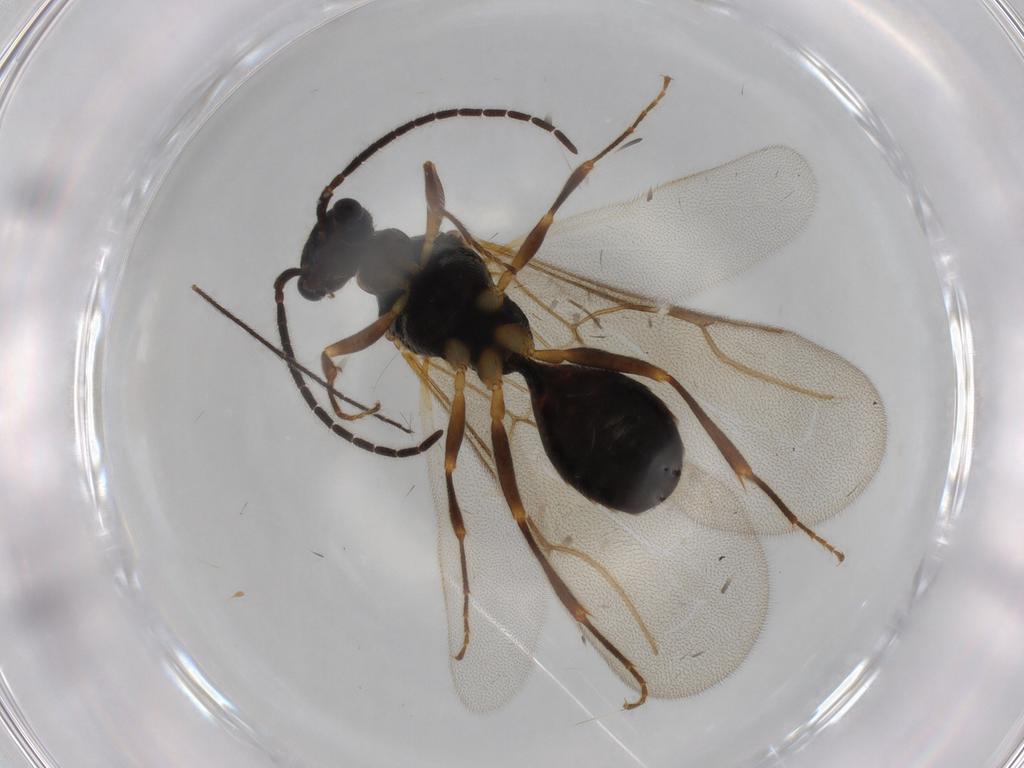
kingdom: Animalia
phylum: Arthropoda
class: Insecta
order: Hymenoptera
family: Bethylidae
